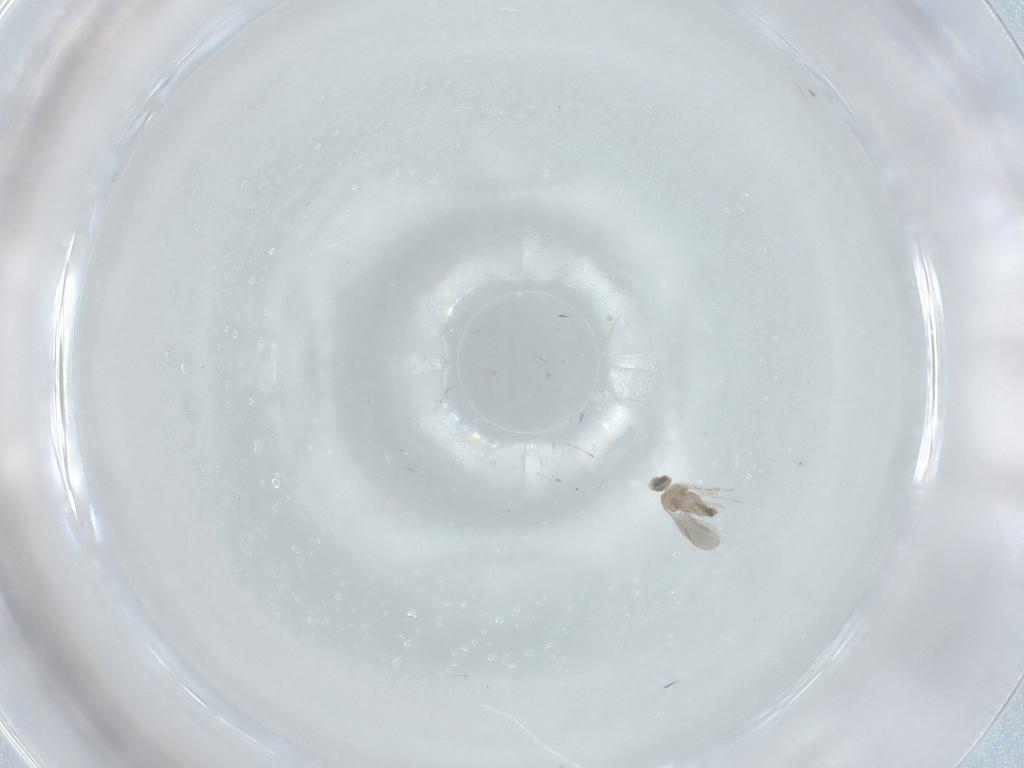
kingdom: Animalia
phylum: Arthropoda
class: Insecta
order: Diptera
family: Cecidomyiidae
